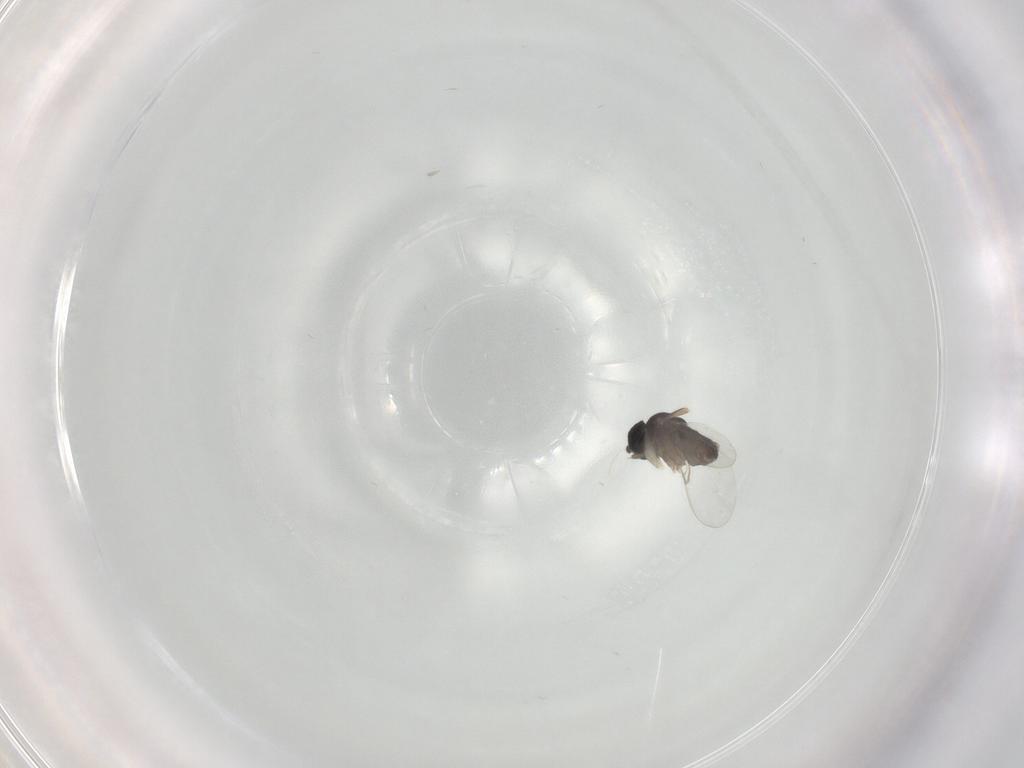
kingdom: Animalia
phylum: Arthropoda
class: Insecta
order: Diptera
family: Phoridae
